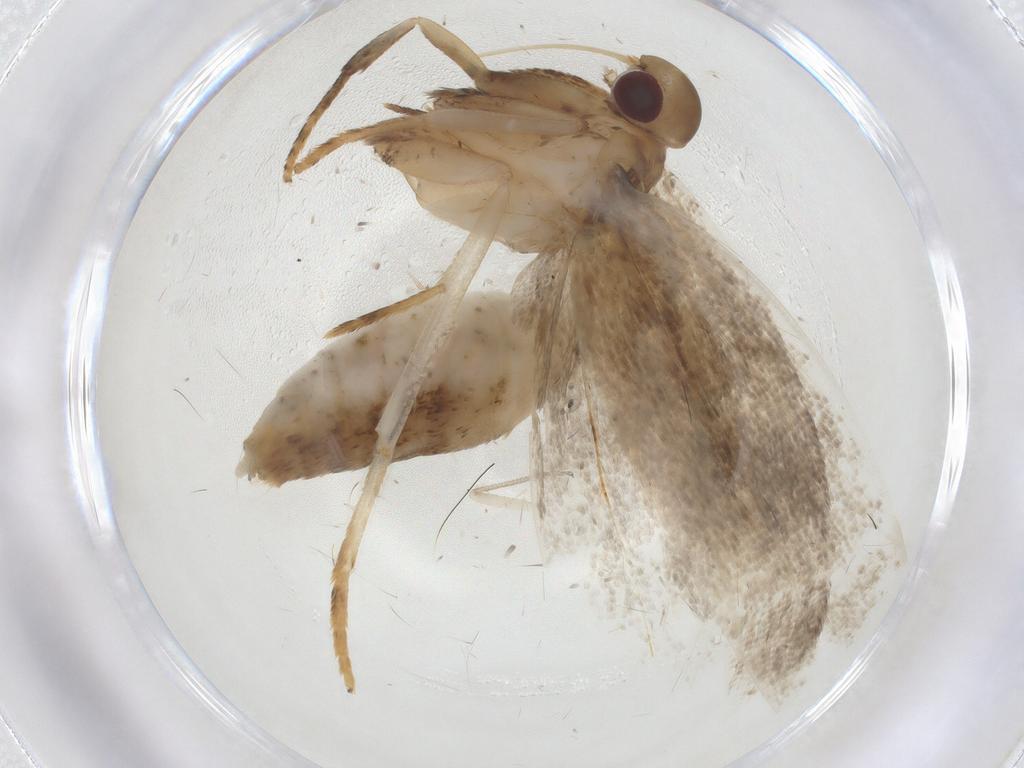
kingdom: Animalia
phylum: Arthropoda
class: Insecta
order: Lepidoptera
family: Depressariidae
